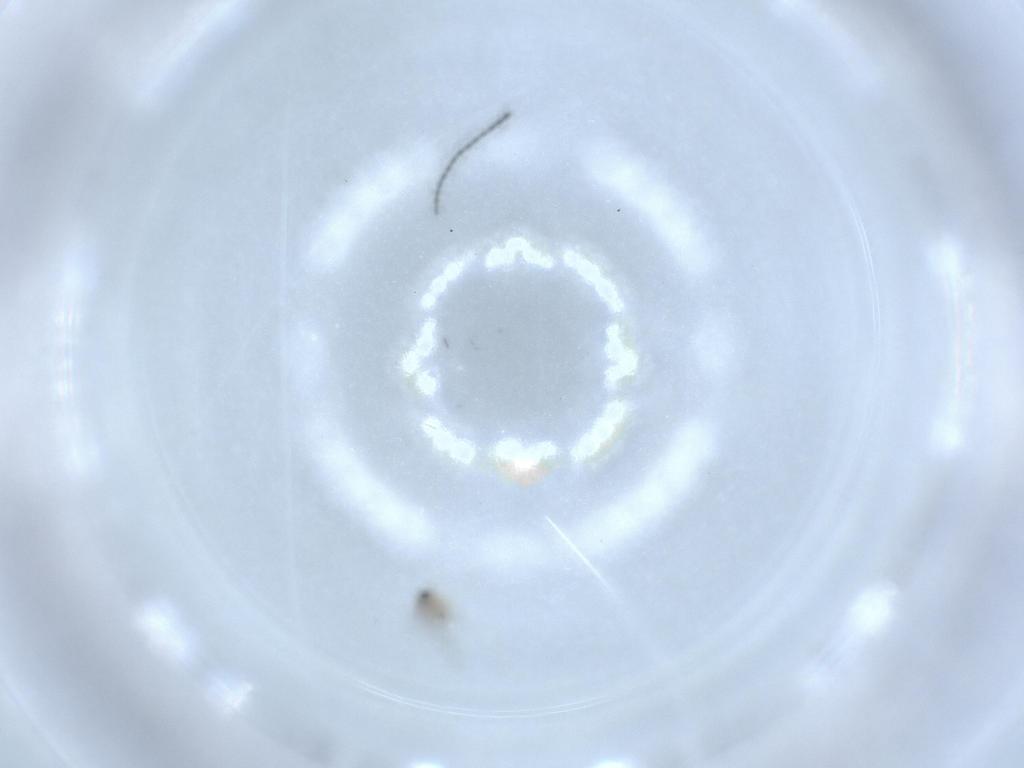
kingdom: Animalia
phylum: Arthropoda
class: Insecta
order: Diptera
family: Sciaridae
